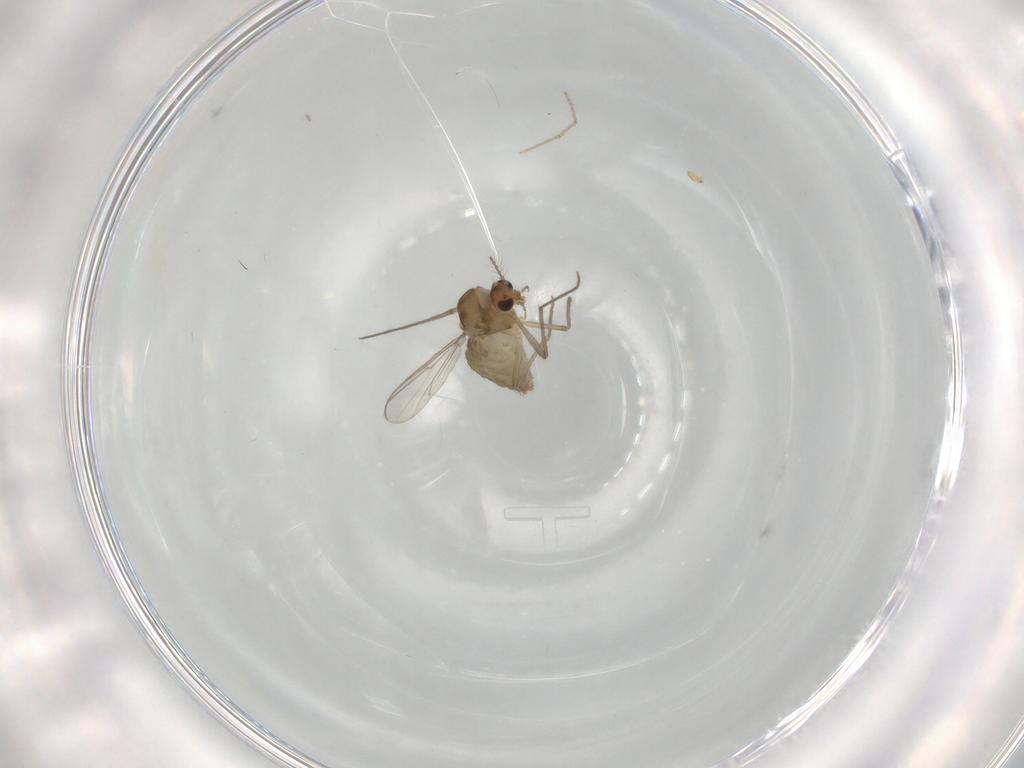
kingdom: Animalia
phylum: Arthropoda
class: Insecta
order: Diptera
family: Chironomidae
